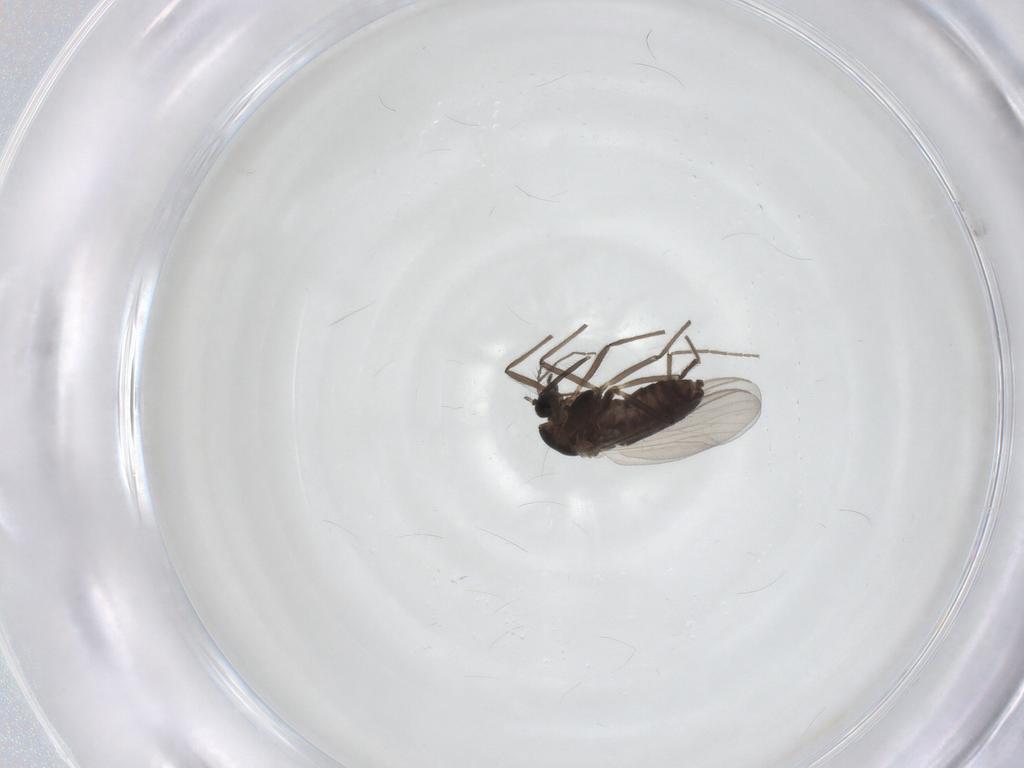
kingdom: Animalia
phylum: Arthropoda
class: Insecta
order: Diptera
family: Chironomidae
